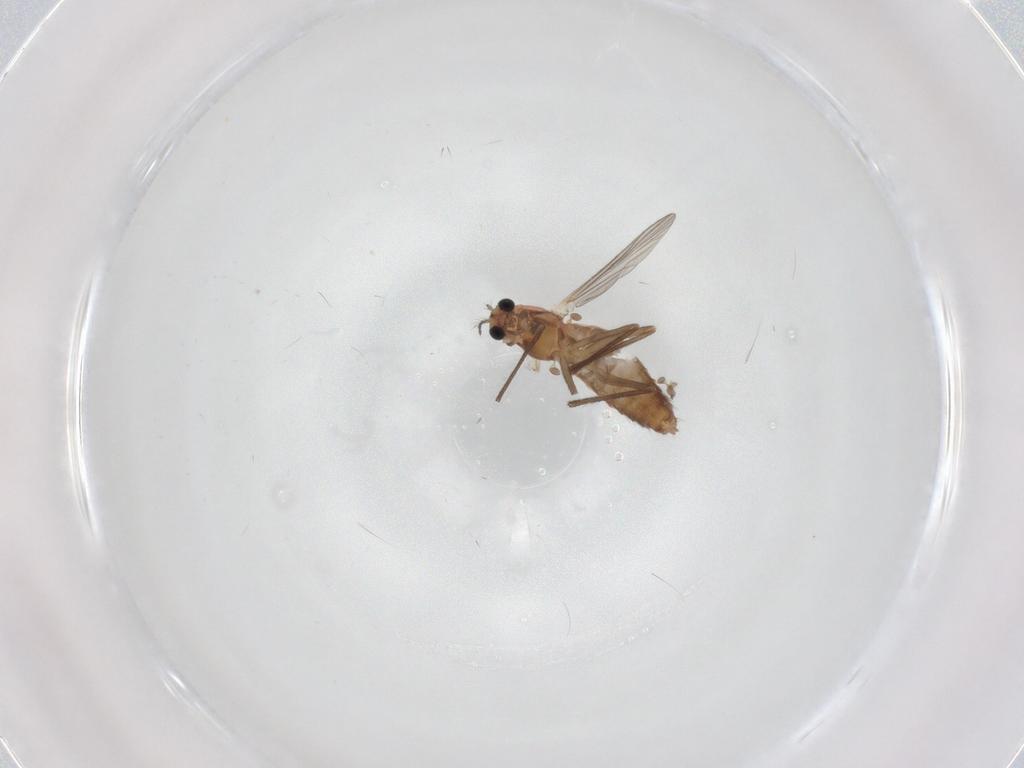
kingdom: Animalia
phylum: Arthropoda
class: Insecta
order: Diptera
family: Chironomidae
